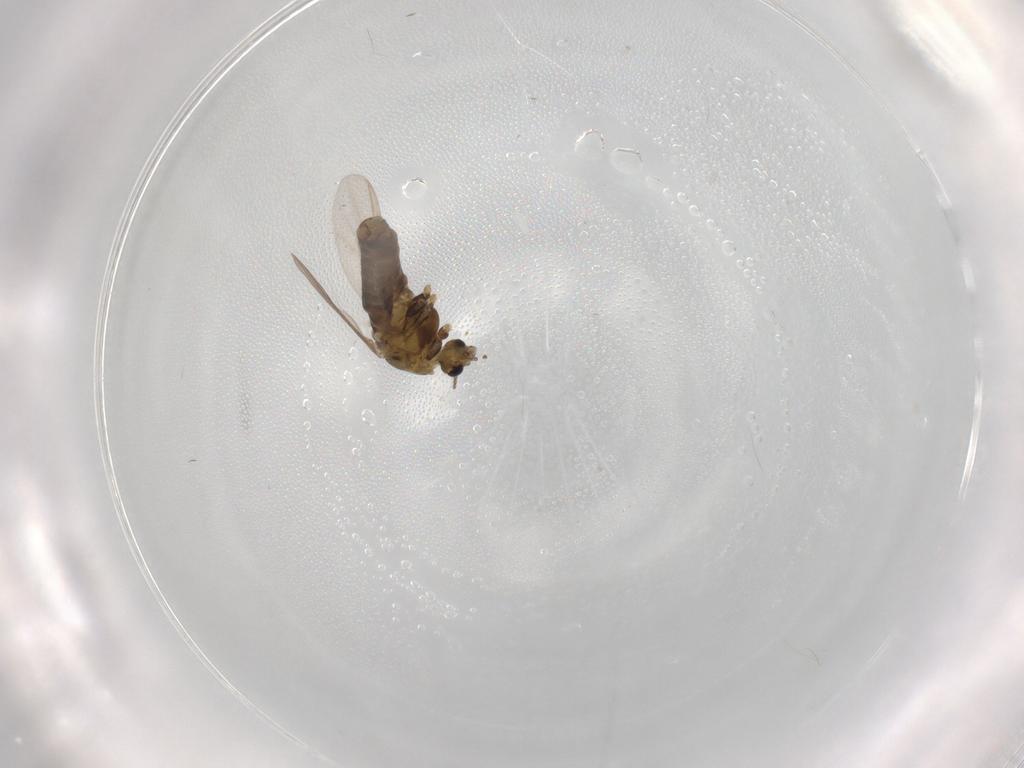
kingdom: Animalia
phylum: Arthropoda
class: Insecta
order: Diptera
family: Chironomidae
